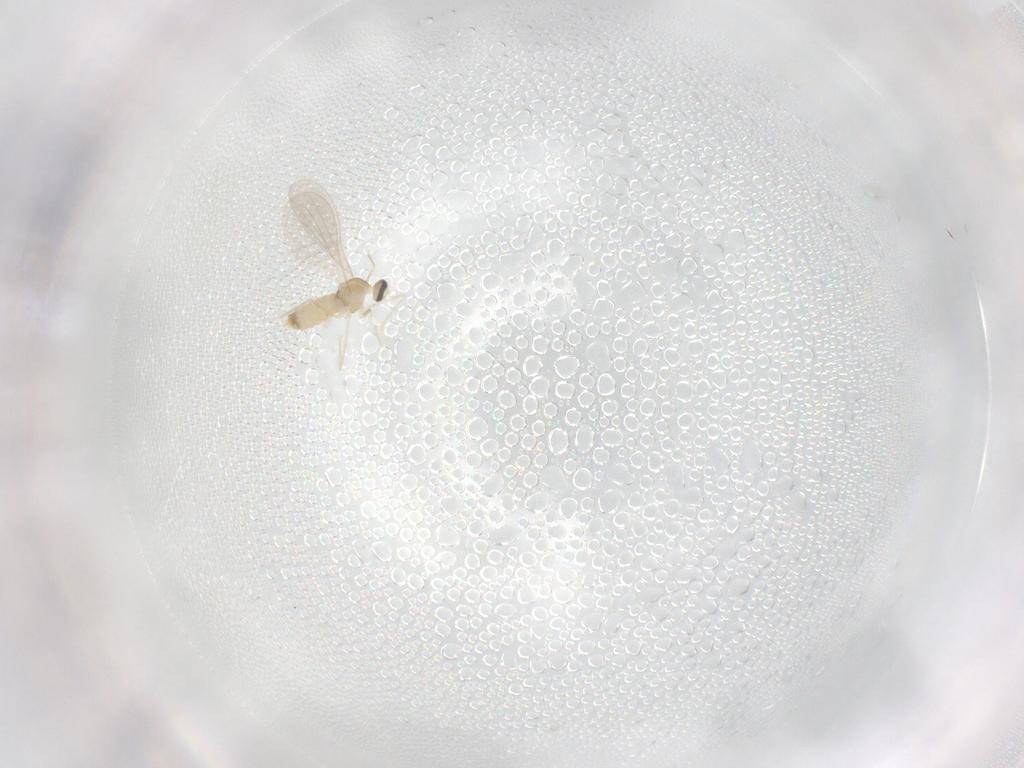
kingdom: Animalia
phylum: Arthropoda
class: Insecta
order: Diptera
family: Cecidomyiidae
